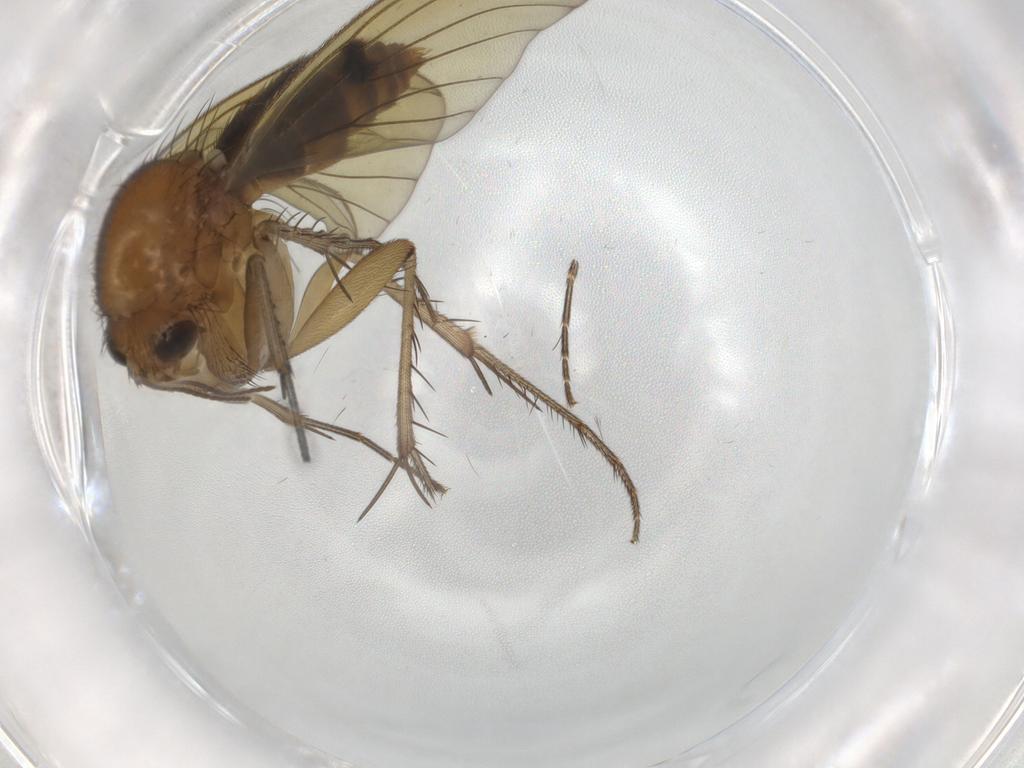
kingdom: Animalia
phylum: Arthropoda
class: Insecta
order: Diptera
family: Mycetophilidae
